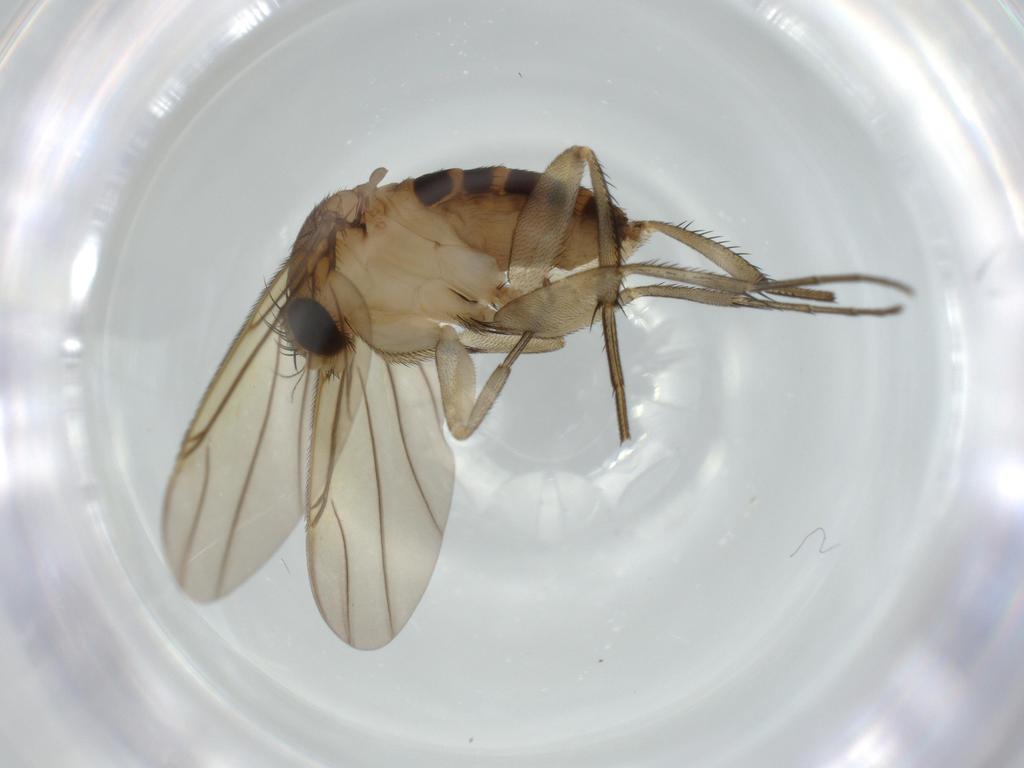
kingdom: Animalia
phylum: Arthropoda
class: Insecta
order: Diptera
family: Phoridae
